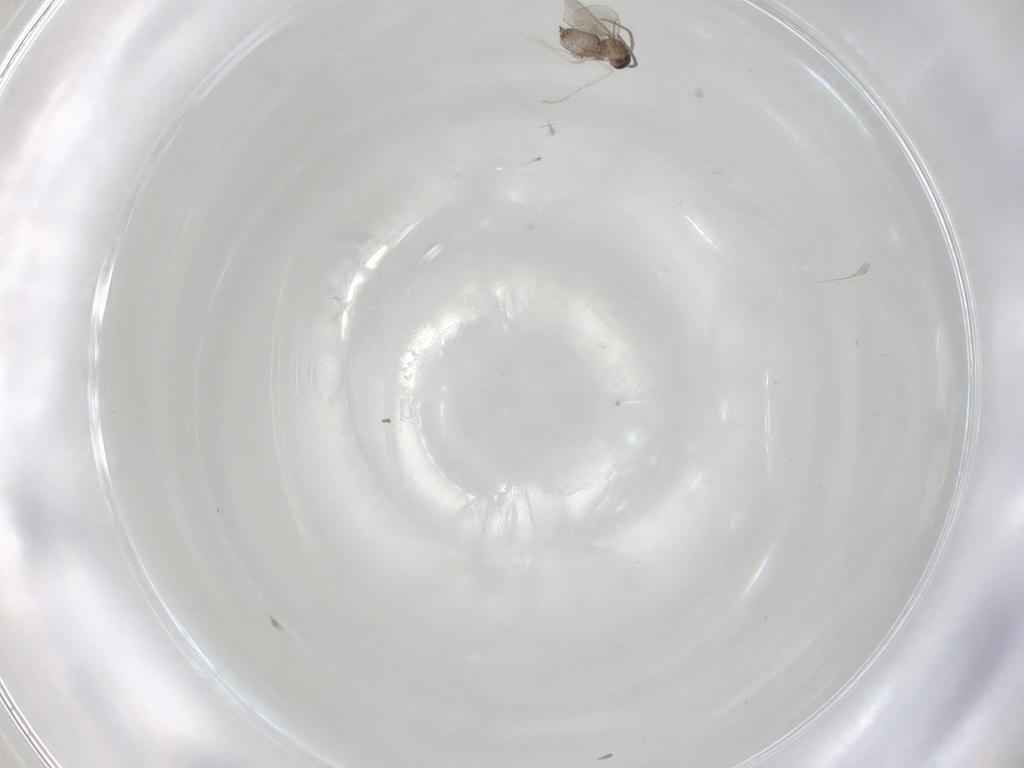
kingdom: Animalia
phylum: Arthropoda
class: Insecta
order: Diptera
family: Cecidomyiidae
